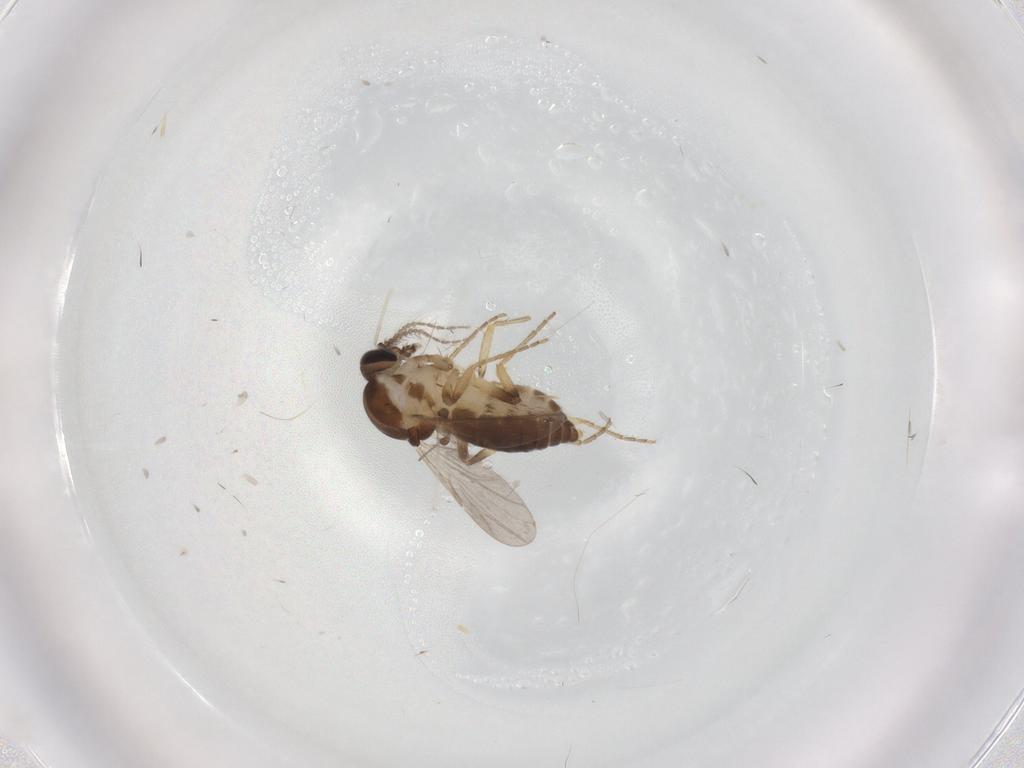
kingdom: Animalia
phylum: Arthropoda
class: Insecta
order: Diptera
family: Ceratopogonidae
